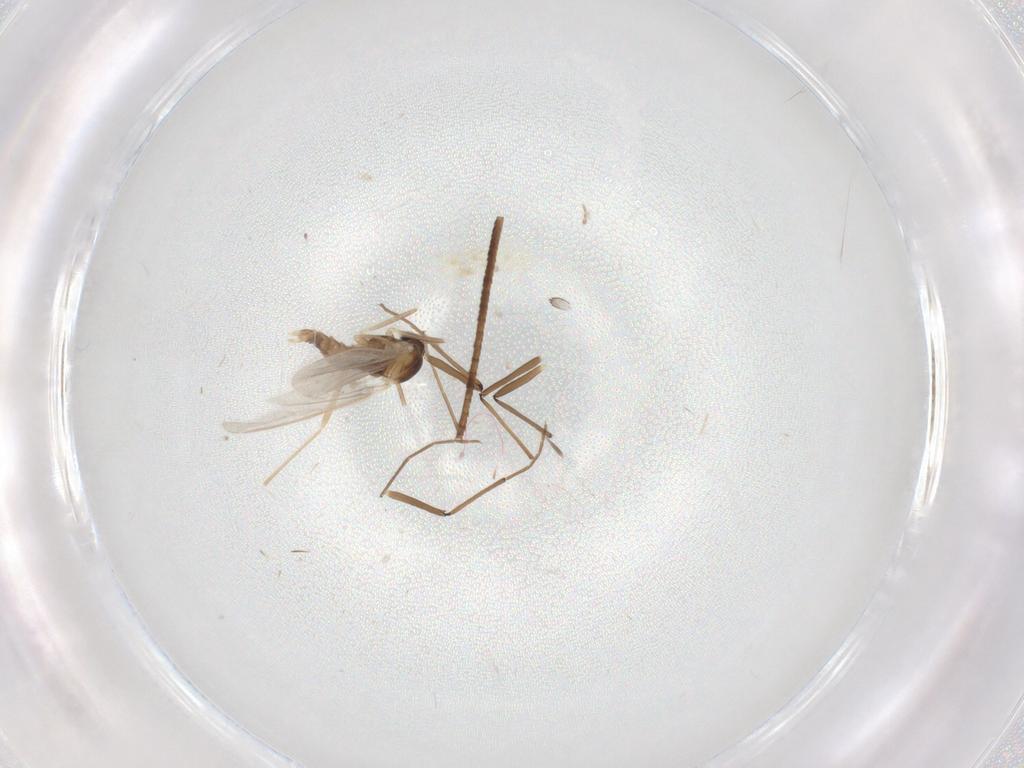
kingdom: Animalia
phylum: Arthropoda
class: Insecta
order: Diptera
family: Cecidomyiidae
